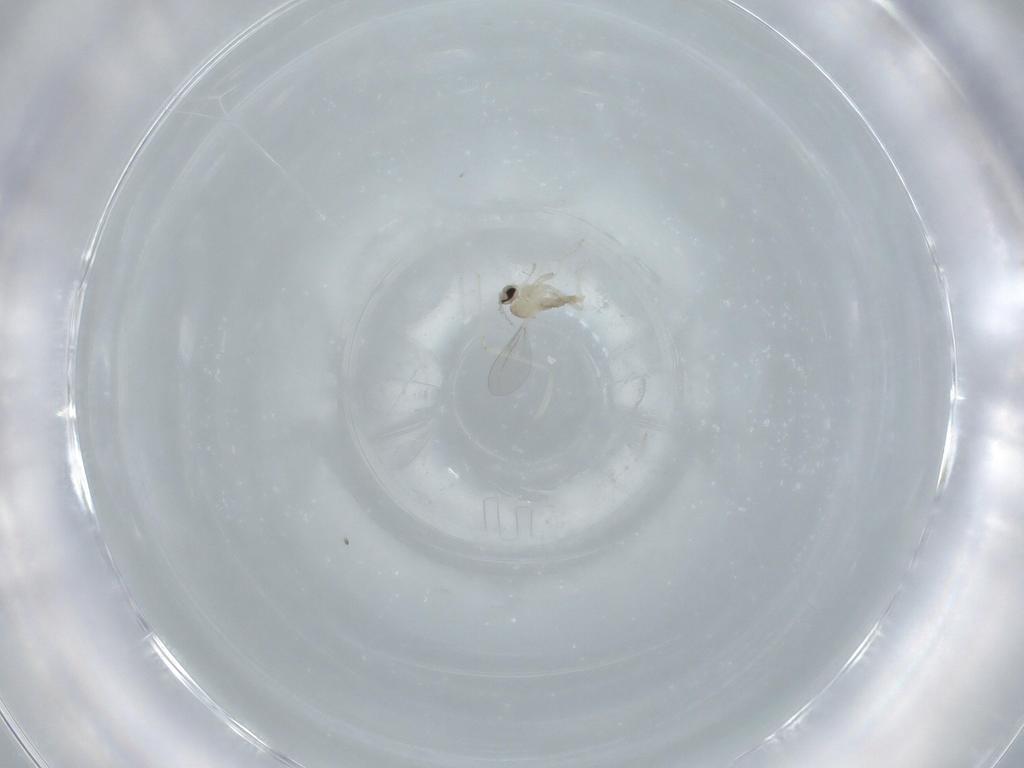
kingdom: Animalia
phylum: Arthropoda
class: Insecta
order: Diptera
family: Cecidomyiidae
